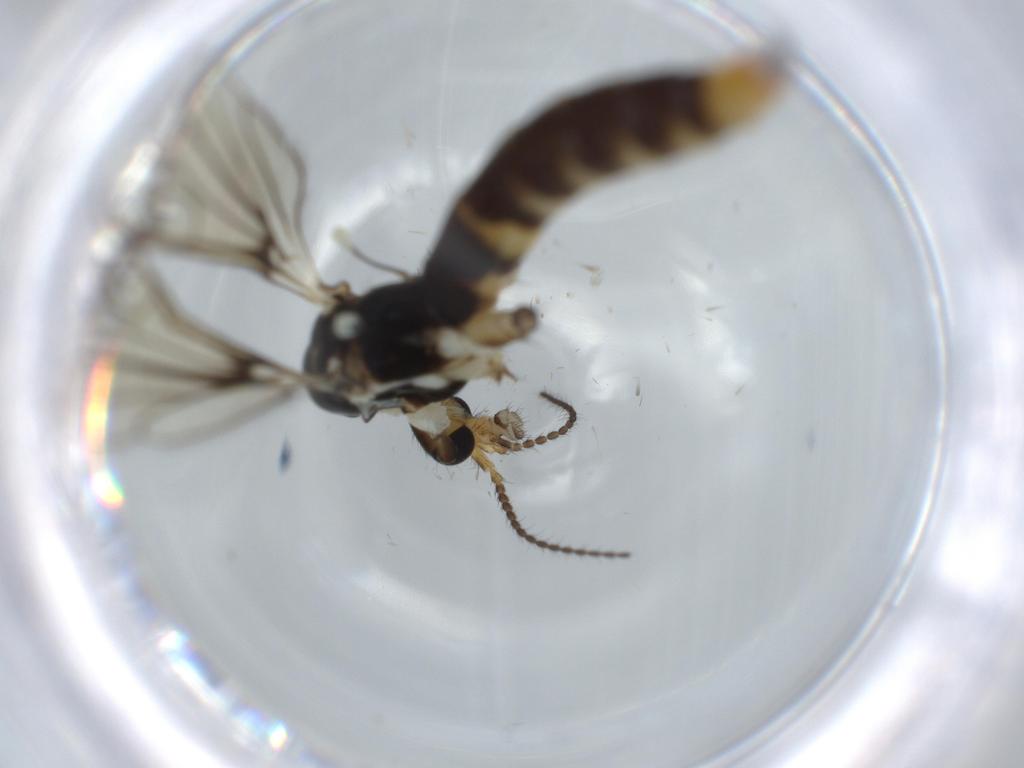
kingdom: Animalia
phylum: Arthropoda
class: Insecta
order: Diptera
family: Limoniidae
